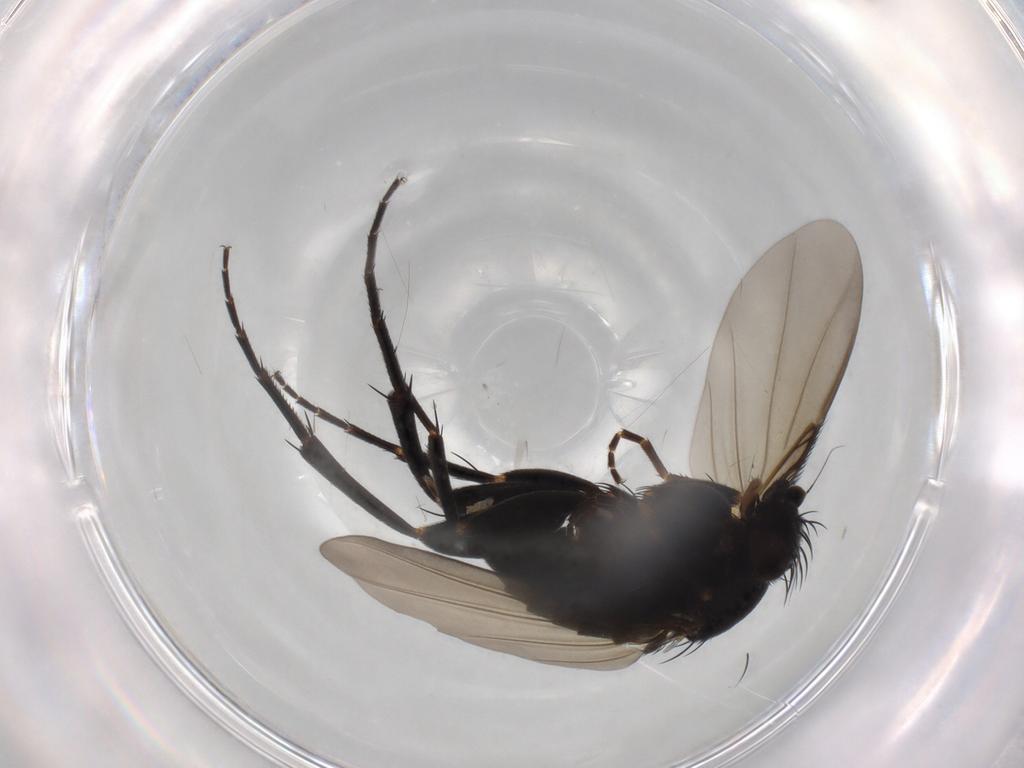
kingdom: Animalia
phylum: Arthropoda
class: Insecta
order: Diptera
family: Phoridae
